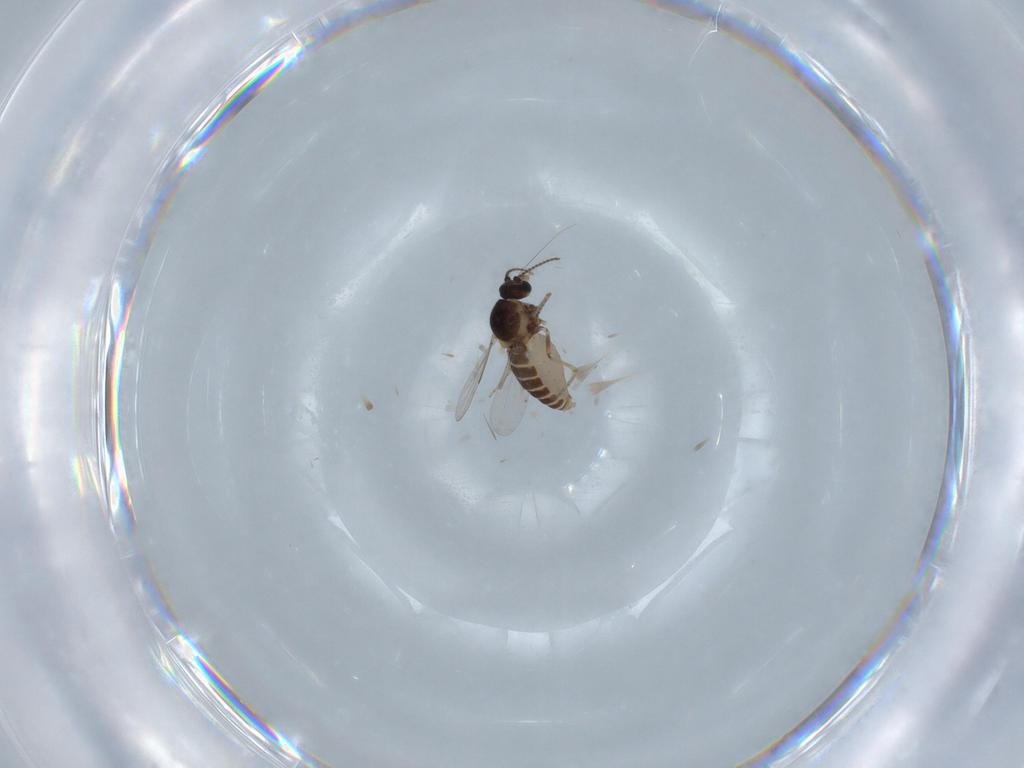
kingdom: Animalia
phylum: Arthropoda
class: Insecta
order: Diptera
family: Ceratopogonidae
